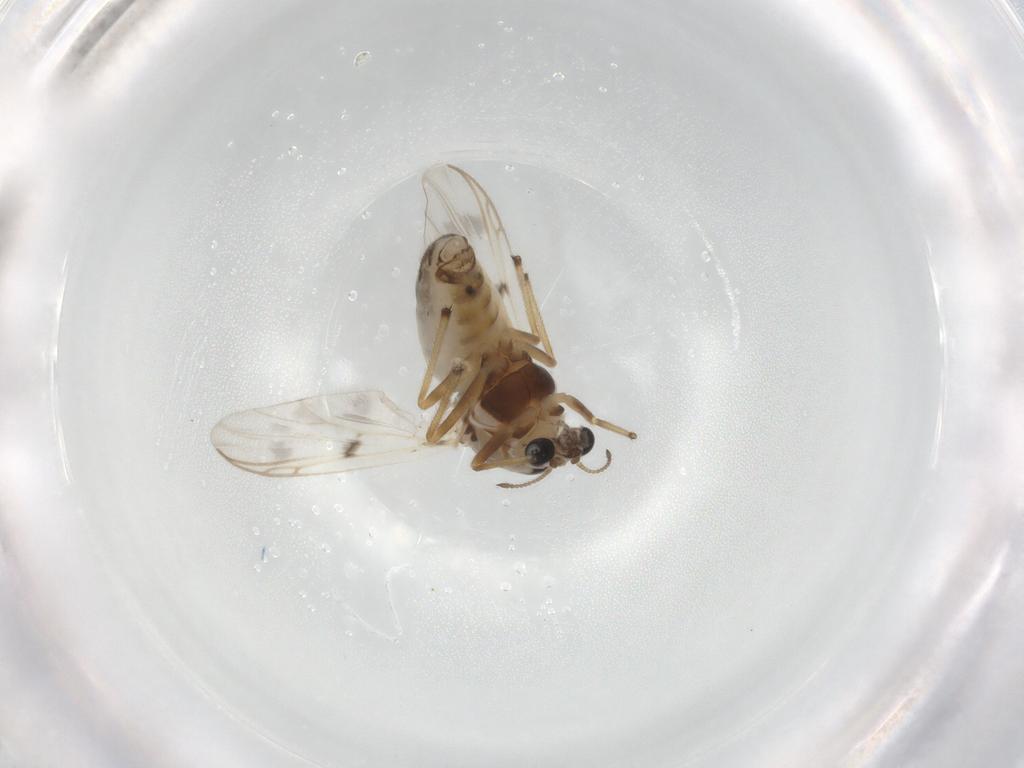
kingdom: Animalia
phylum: Arthropoda
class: Insecta
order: Diptera
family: Chironomidae
